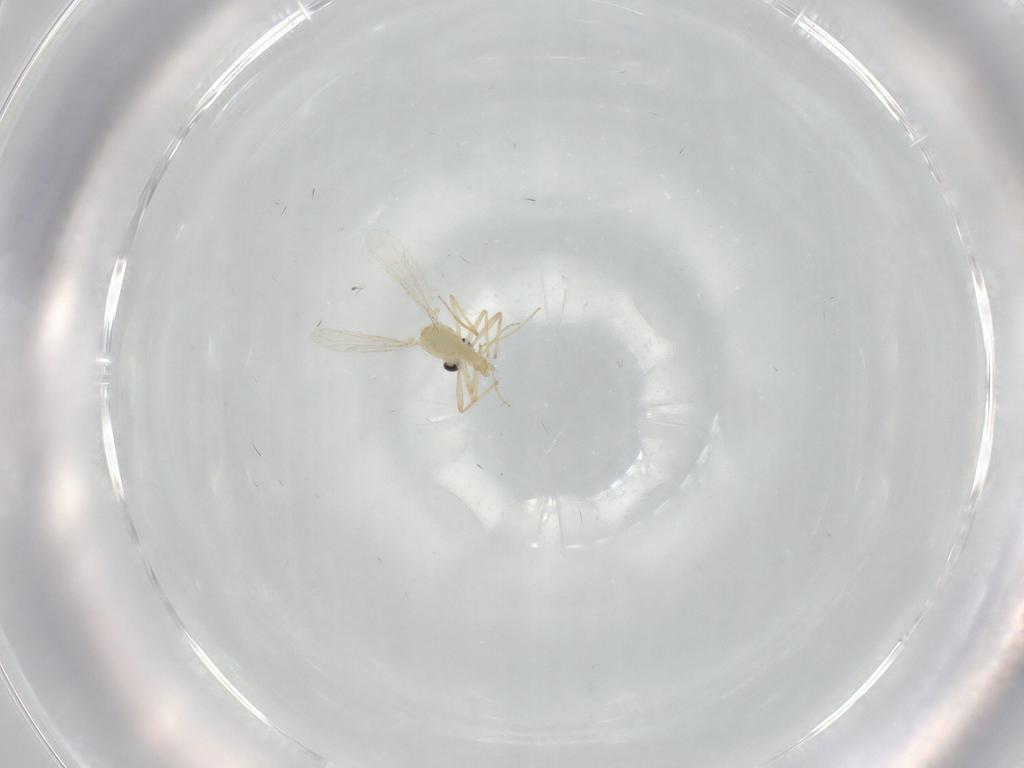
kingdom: Animalia
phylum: Arthropoda
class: Insecta
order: Diptera
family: Chironomidae
